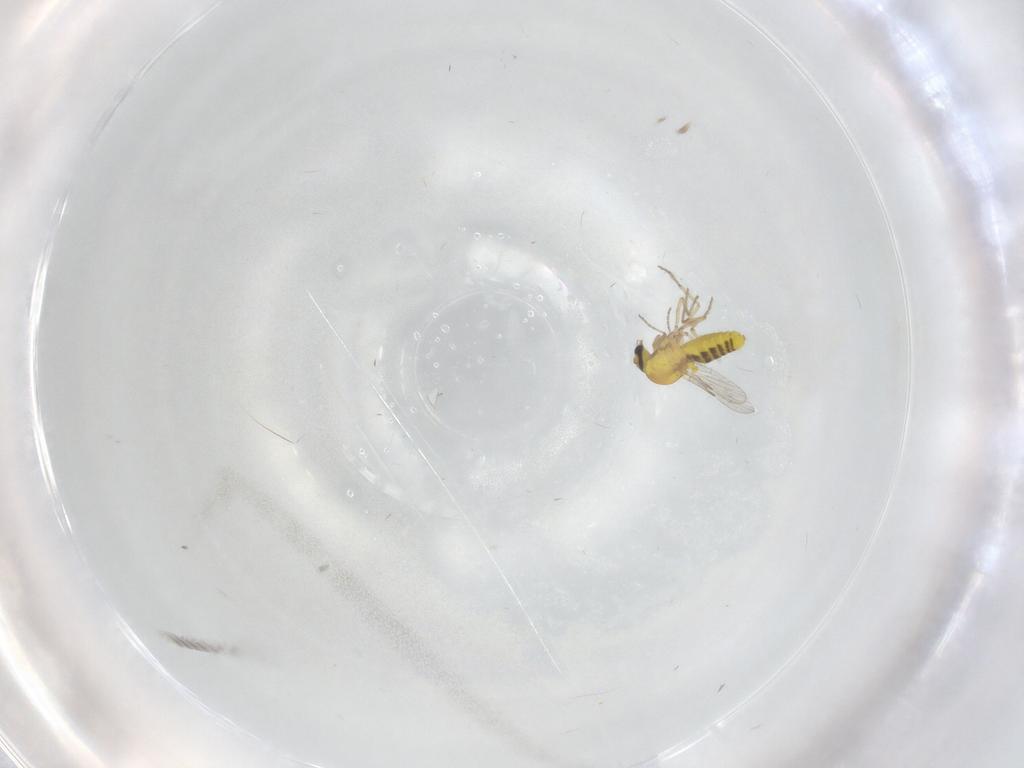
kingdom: Animalia
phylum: Arthropoda
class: Insecta
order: Diptera
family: Ceratopogonidae
